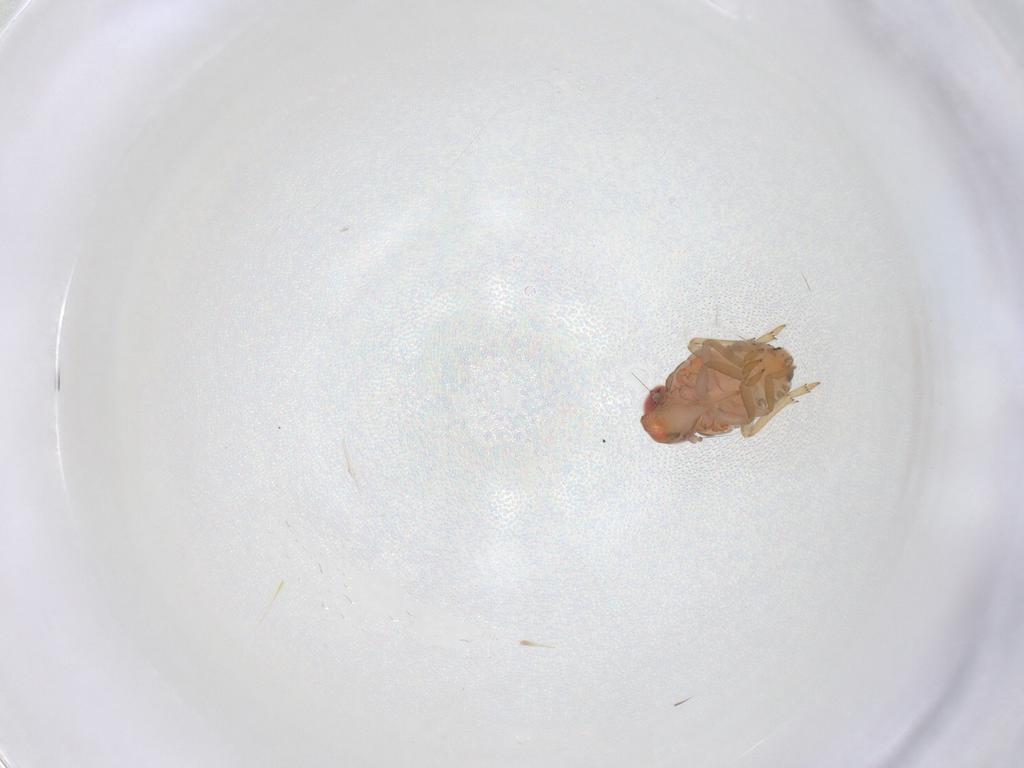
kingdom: Animalia
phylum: Arthropoda
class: Insecta
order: Hemiptera
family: Fulgoroidea_incertae_sedis
